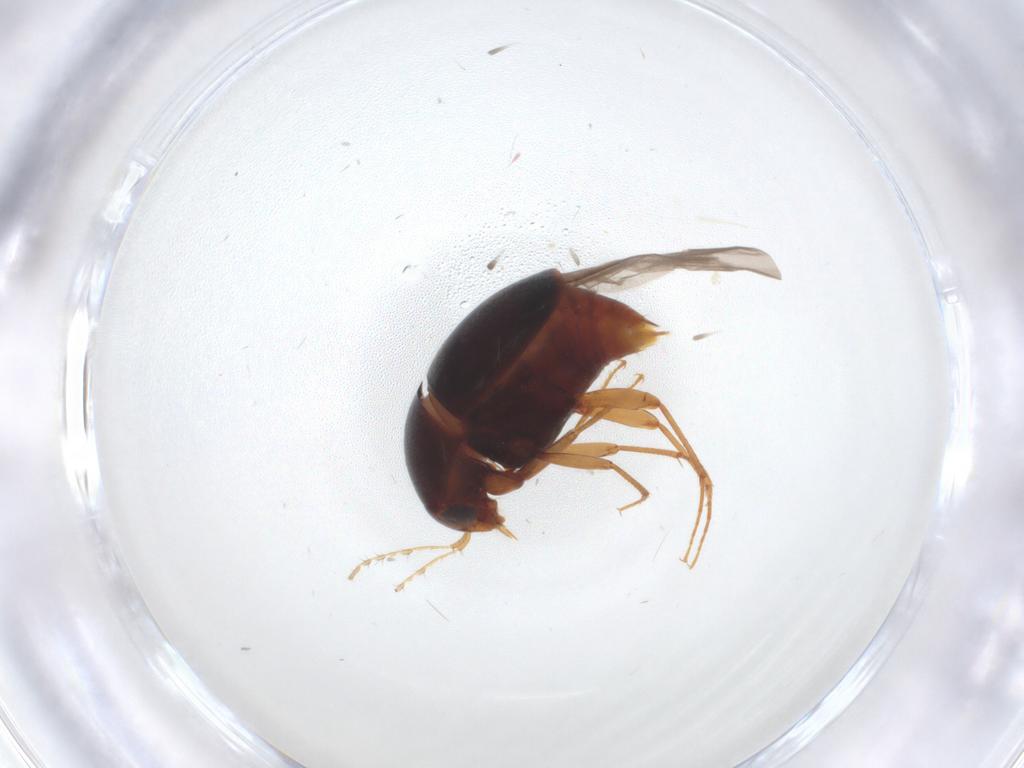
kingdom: Animalia
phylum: Arthropoda
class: Insecta
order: Coleoptera
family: Staphylinidae
